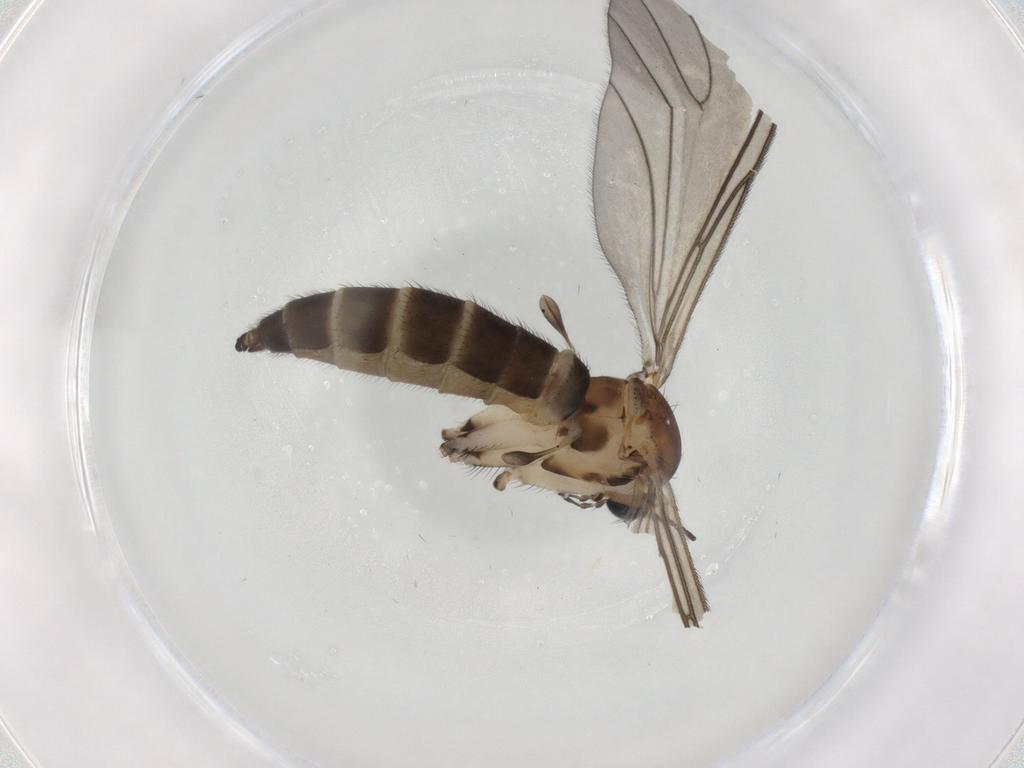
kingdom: Animalia
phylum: Arthropoda
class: Insecta
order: Diptera
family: Sciaridae
